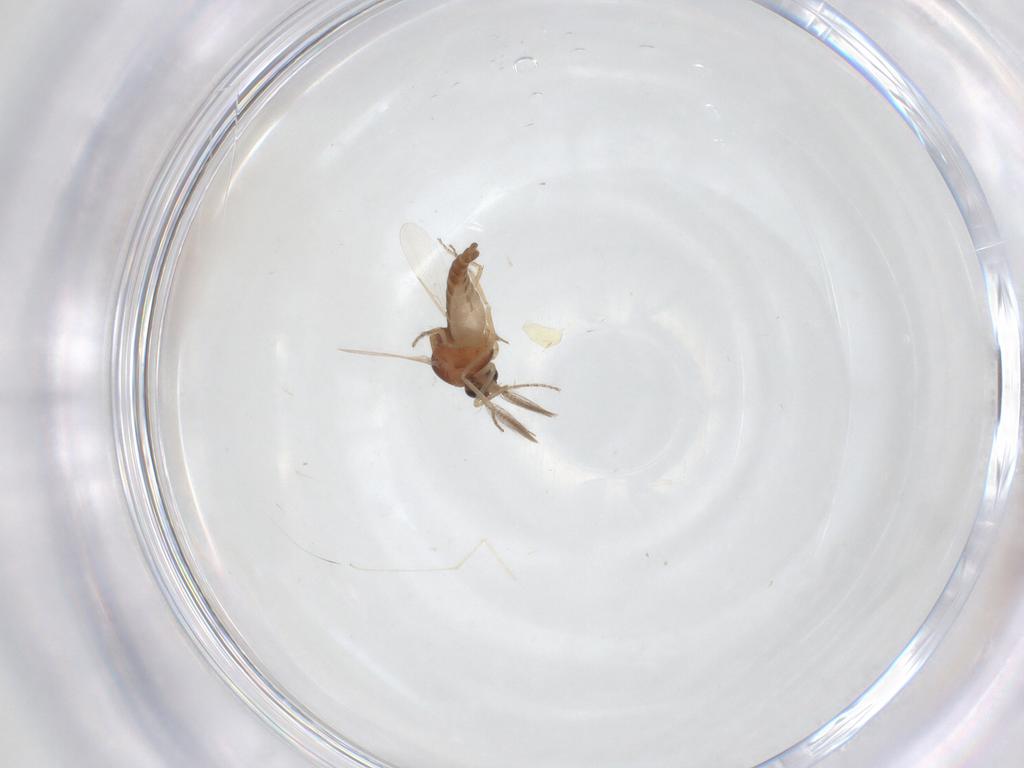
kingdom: Animalia
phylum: Arthropoda
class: Insecta
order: Diptera
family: Ceratopogonidae
